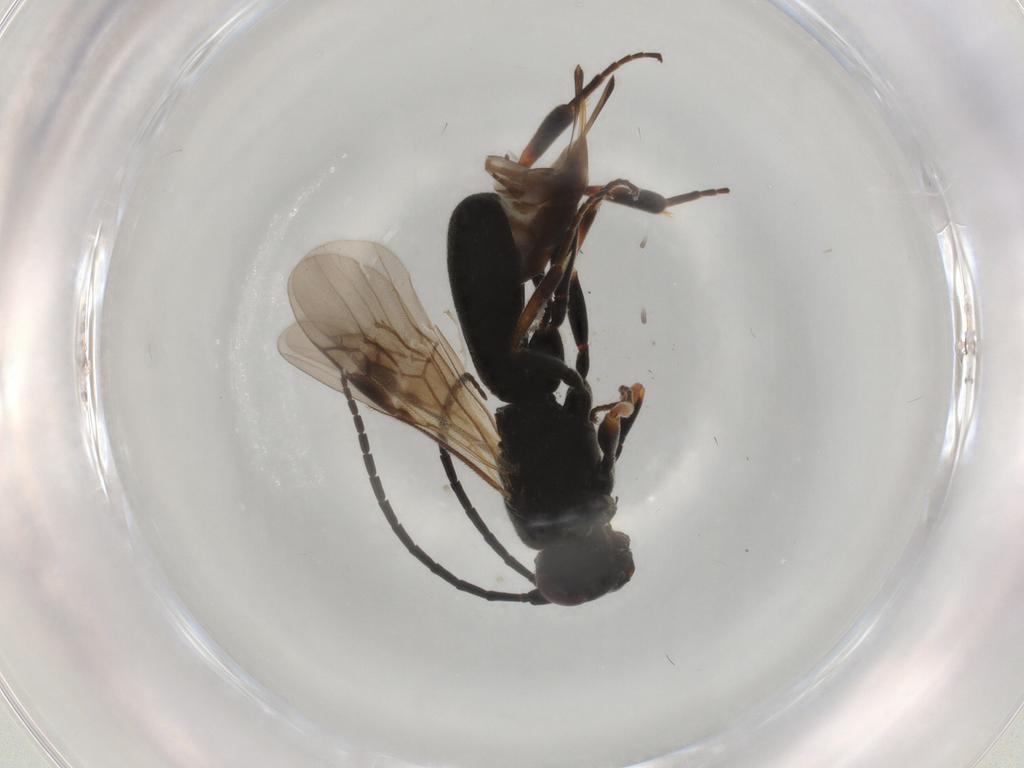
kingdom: Animalia
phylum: Arthropoda
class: Insecta
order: Hymenoptera
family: Braconidae
